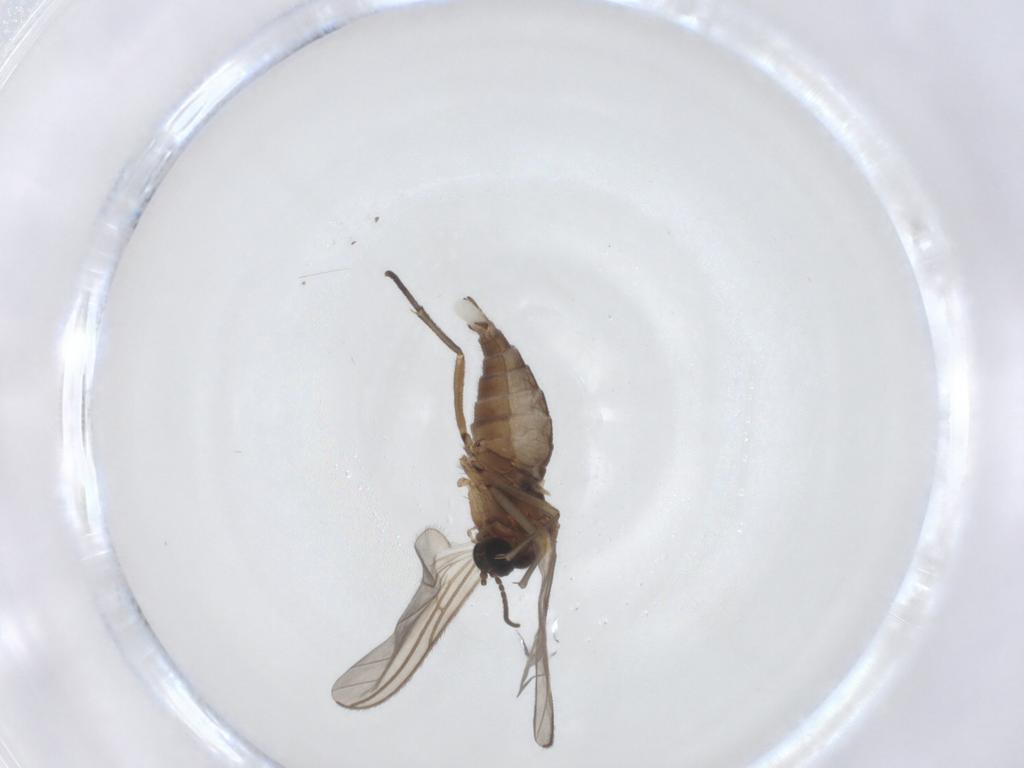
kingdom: Animalia
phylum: Arthropoda
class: Insecta
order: Diptera
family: Sciaridae
